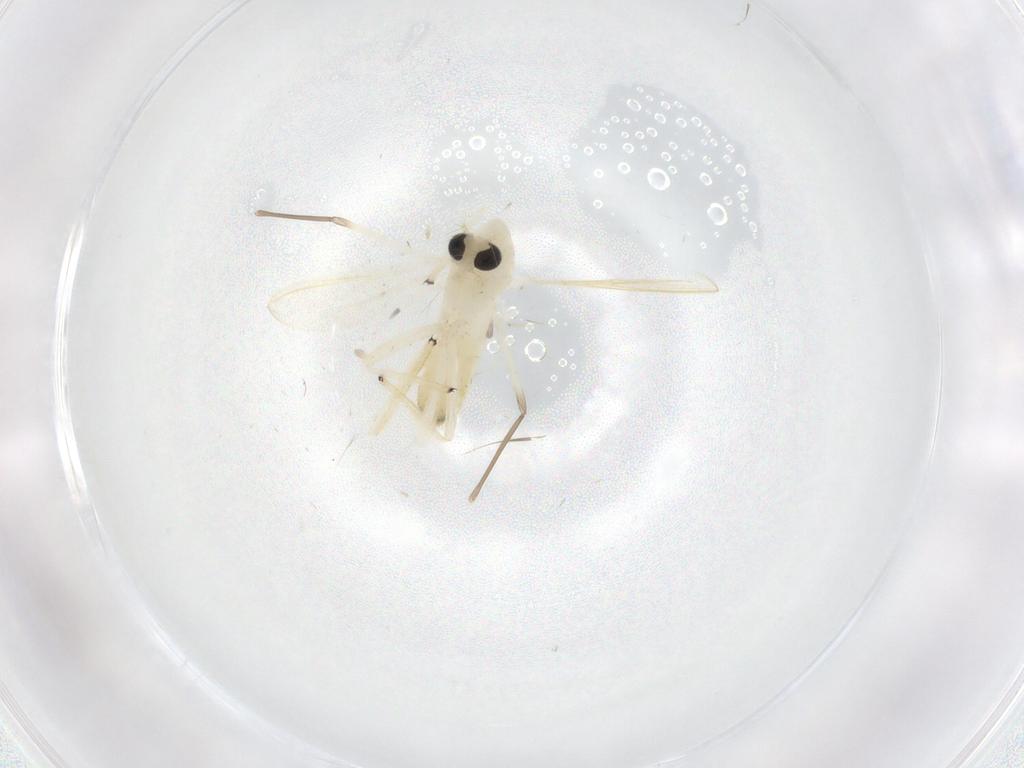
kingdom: Animalia
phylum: Arthropoda
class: Insecta
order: Diptera
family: Chironomidae
